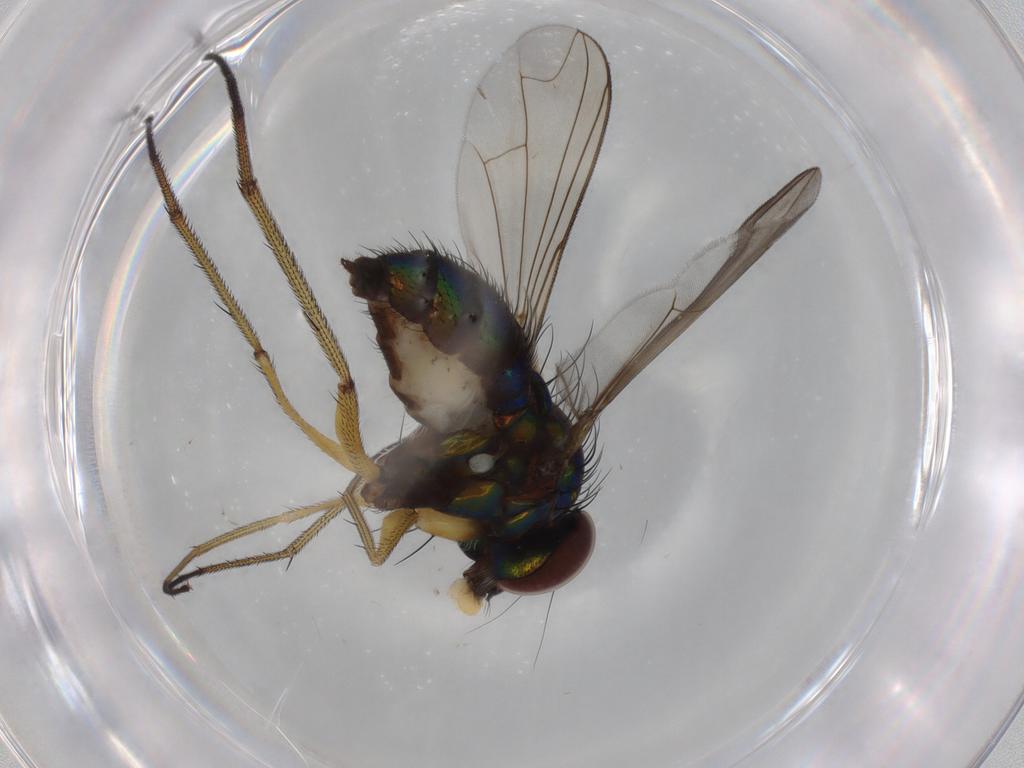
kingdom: Animalia
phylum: Arthropoda
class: Insecta
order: Diptera
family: Dolichopodidae
